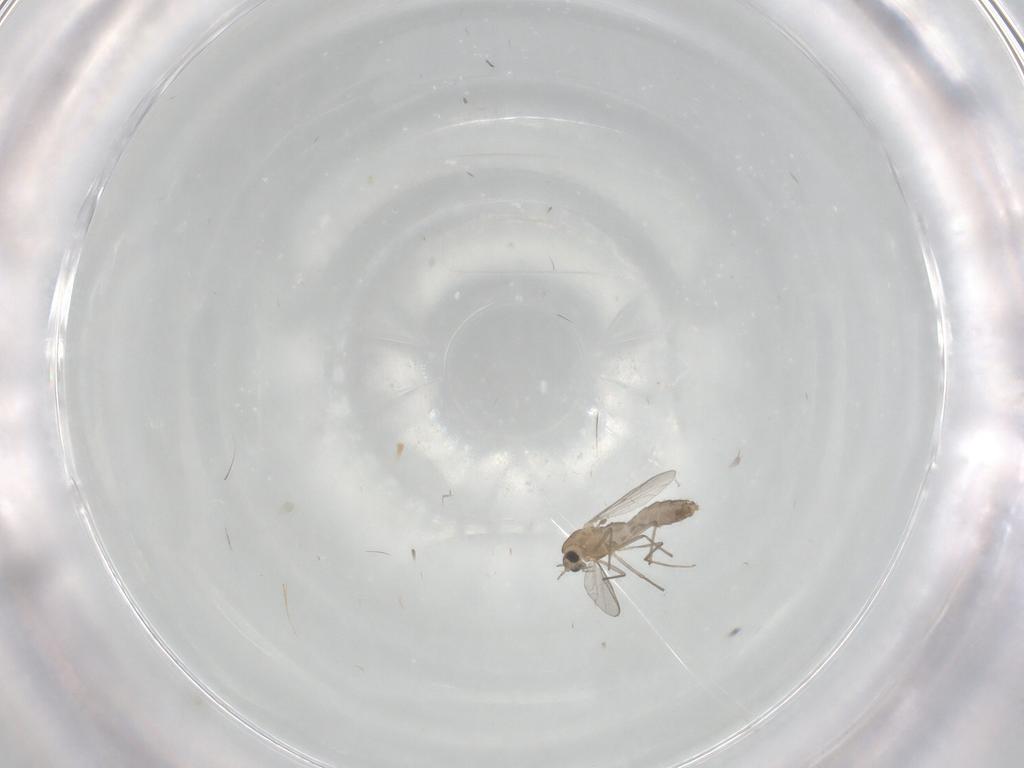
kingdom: Animalia
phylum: Arthropoda
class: Insecta
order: Diptera
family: Chironomidae
